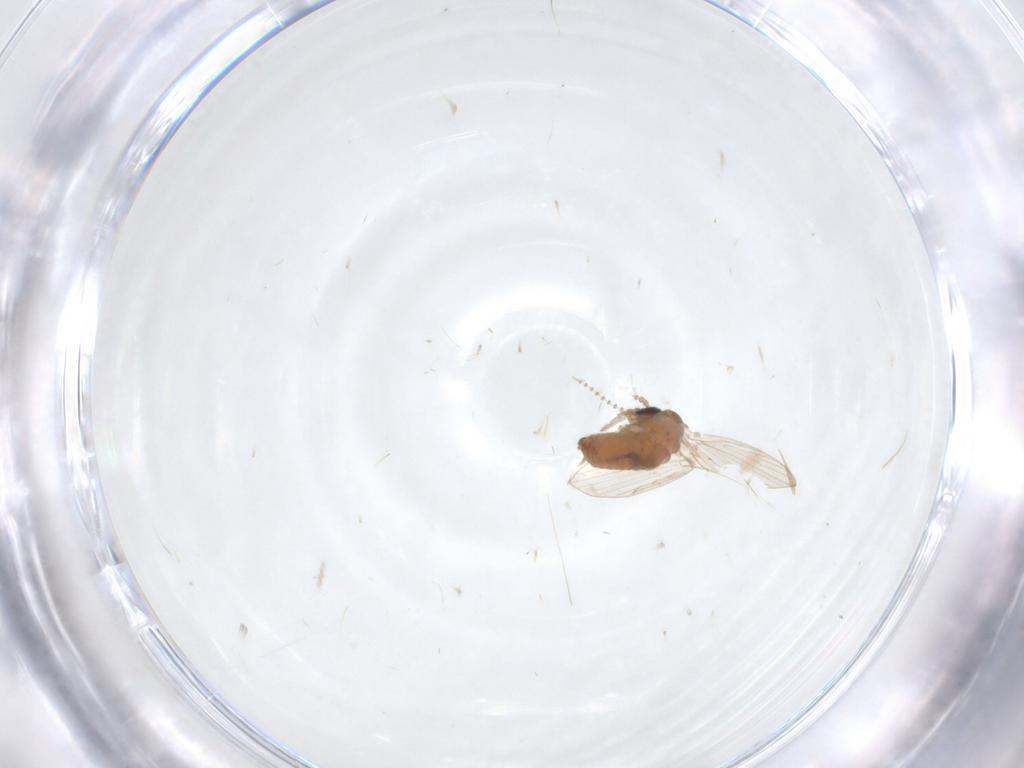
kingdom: Animalia
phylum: Arthropoda
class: Insecta
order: Diptera
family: Psychodidae
